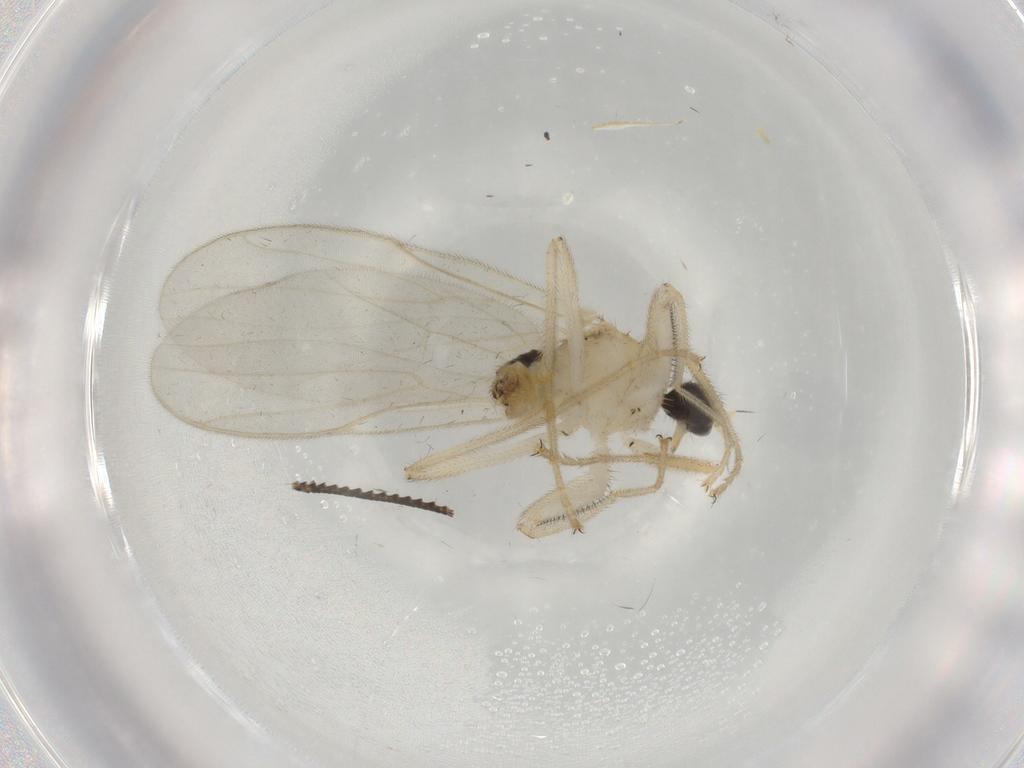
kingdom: Animalia
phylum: Arthropoda
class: Insecta
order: Diptera
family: Hybotidae
